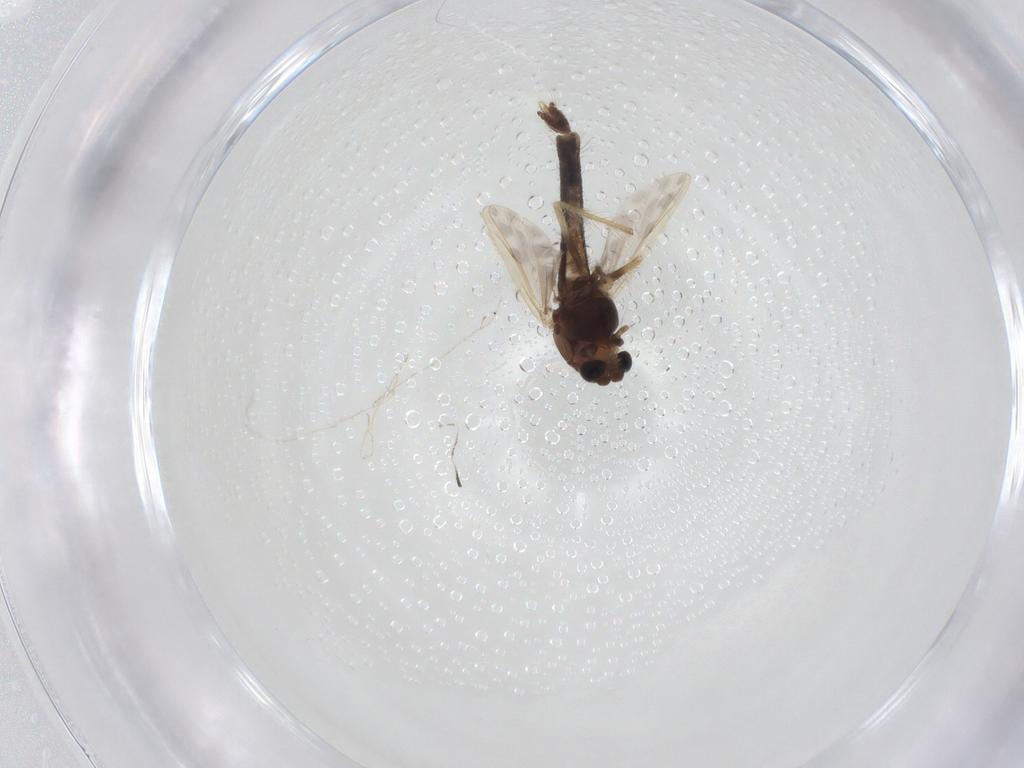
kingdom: Animalia
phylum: Arthropoda
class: Insecta
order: Diptera
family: Chironomidae
